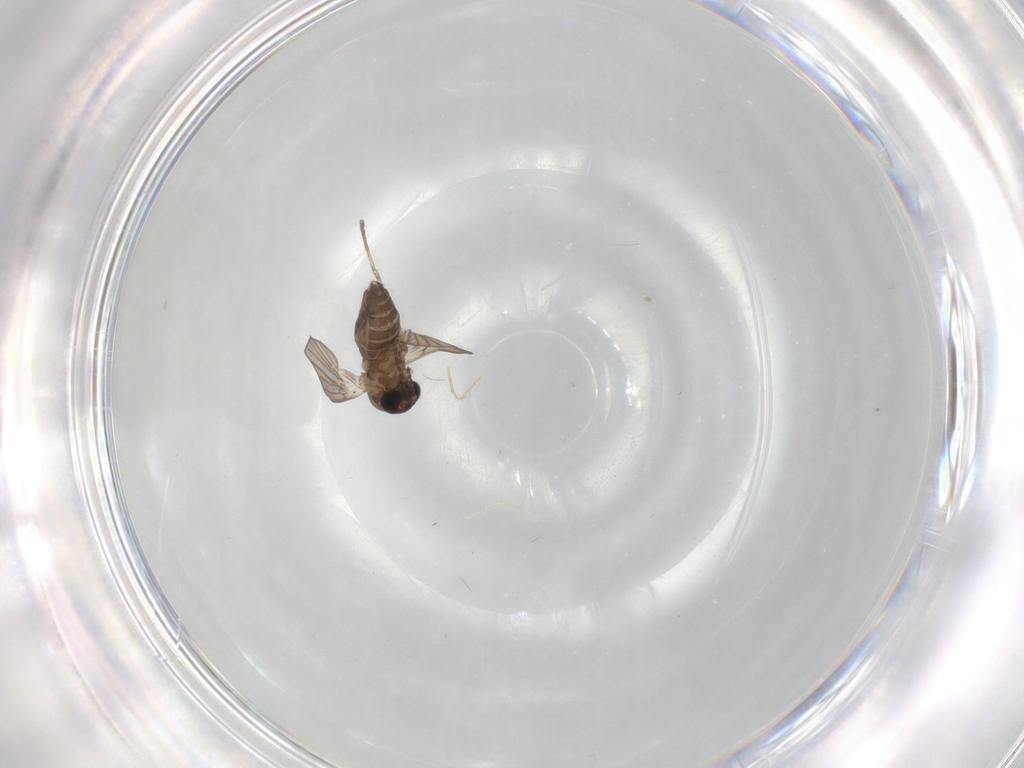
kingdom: Animalia
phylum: Arthropoda
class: Insecta
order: Diptera
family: Psychodidae
